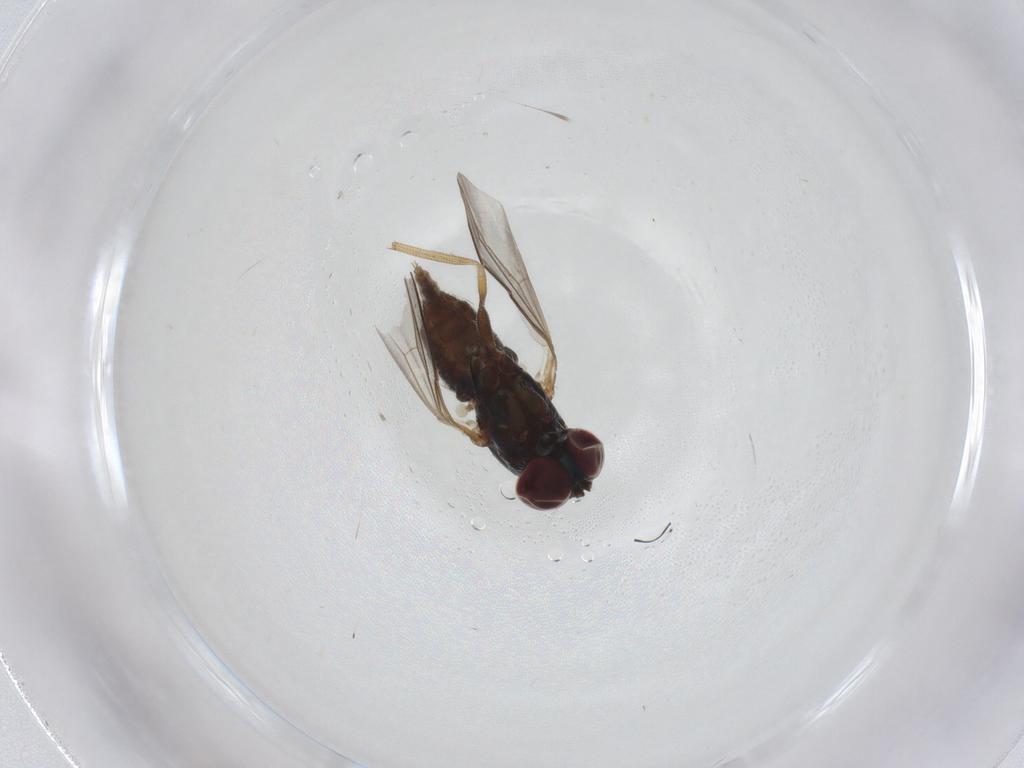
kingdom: Animalia
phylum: Arthropoda
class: Insecta
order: Diptera
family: Dolichopodidae
